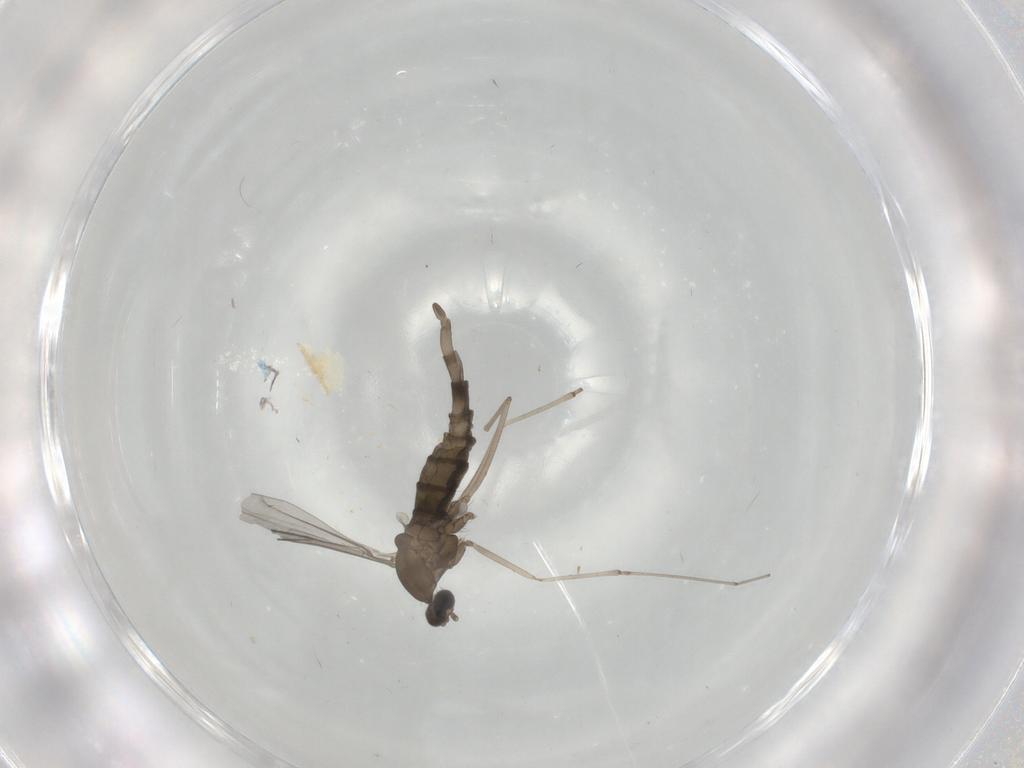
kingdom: Animalia
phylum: Arthropoda
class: Insecta
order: Diptera
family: Cecidomyiidae
